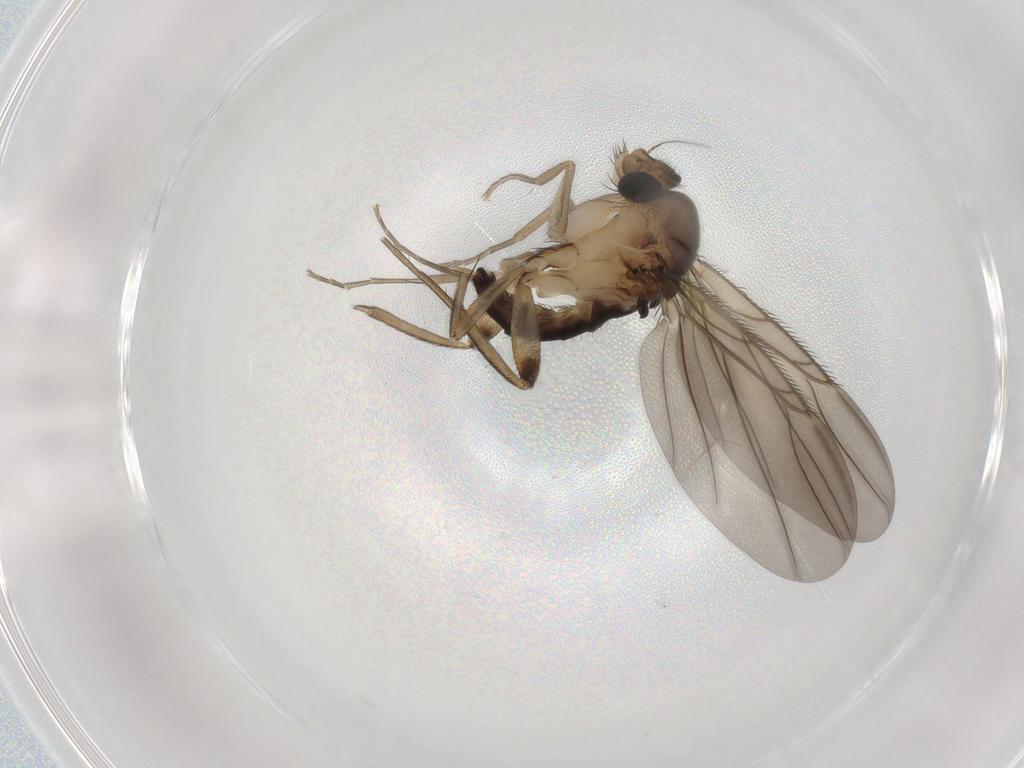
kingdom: Animalia
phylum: Arthropoda
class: Insecta
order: Diptera
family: Phoridae
